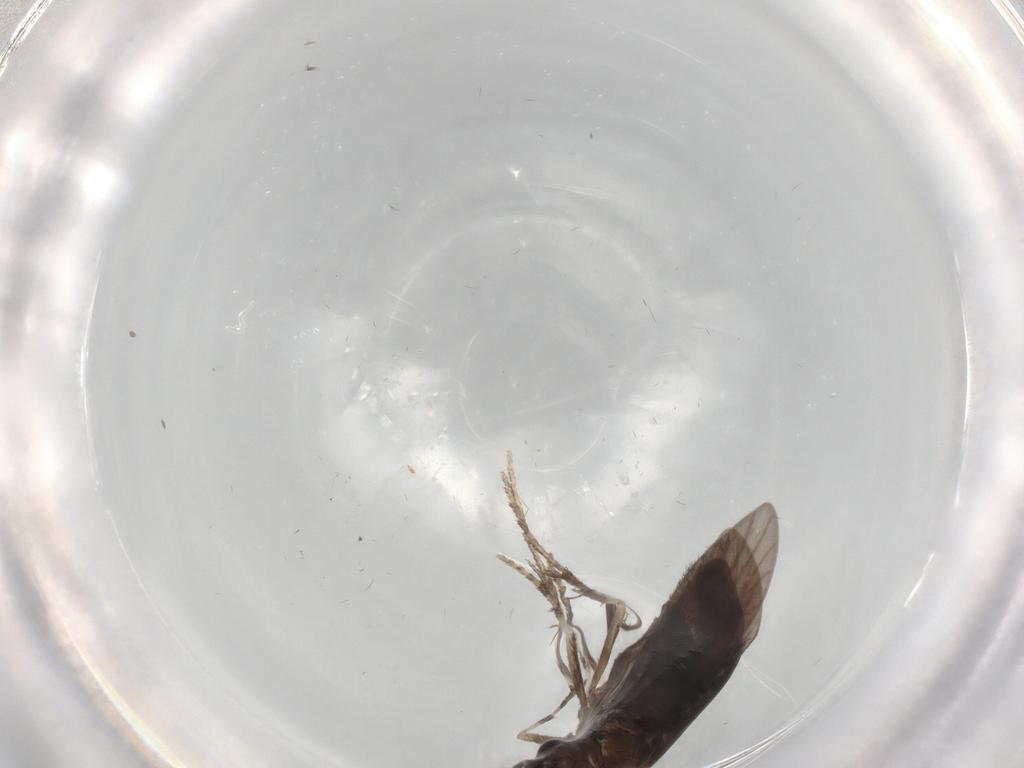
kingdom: Animalia
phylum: Arthropoda
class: Insecta
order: Trichoptera
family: Xiphocentronidae
